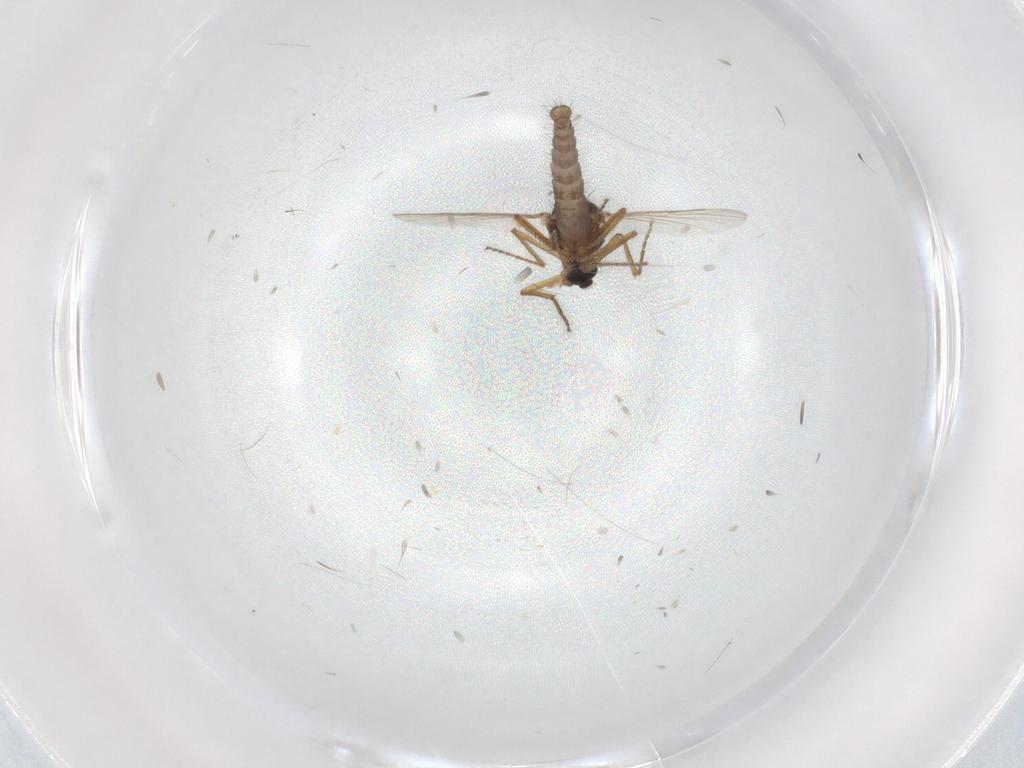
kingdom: Animalia
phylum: Arthropoda
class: Insecta
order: Diptera
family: Ceratopogonidae
